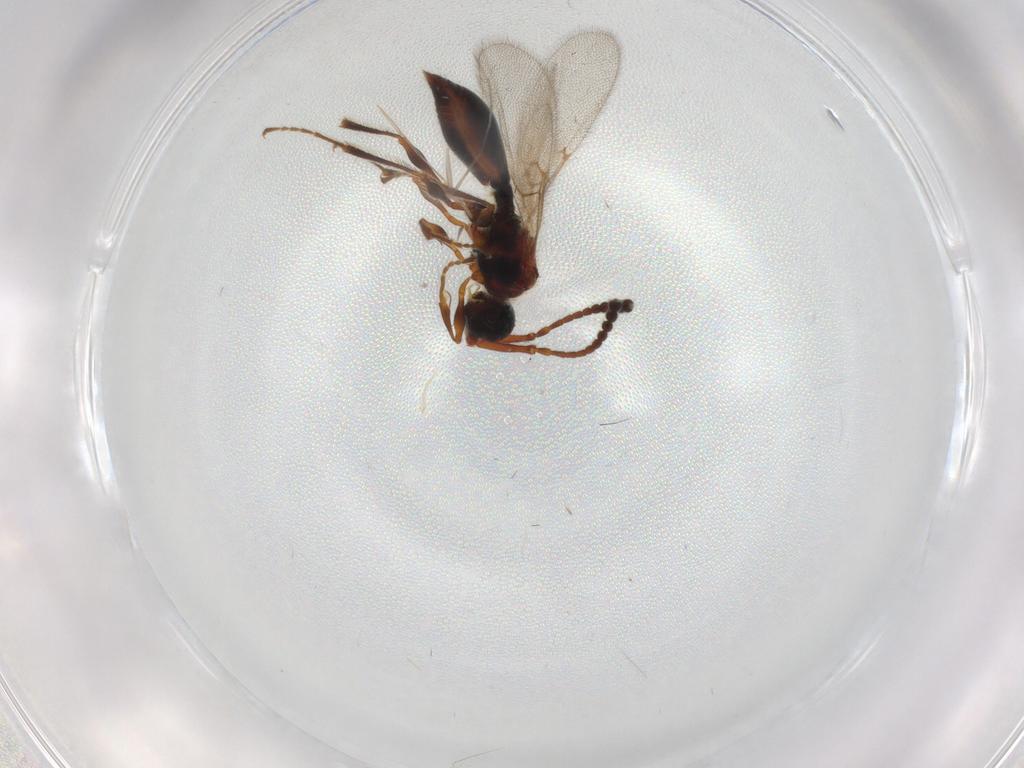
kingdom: Animalia
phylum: Arthropoda
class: Insecta
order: Hymenoptera
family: Diapriidae
